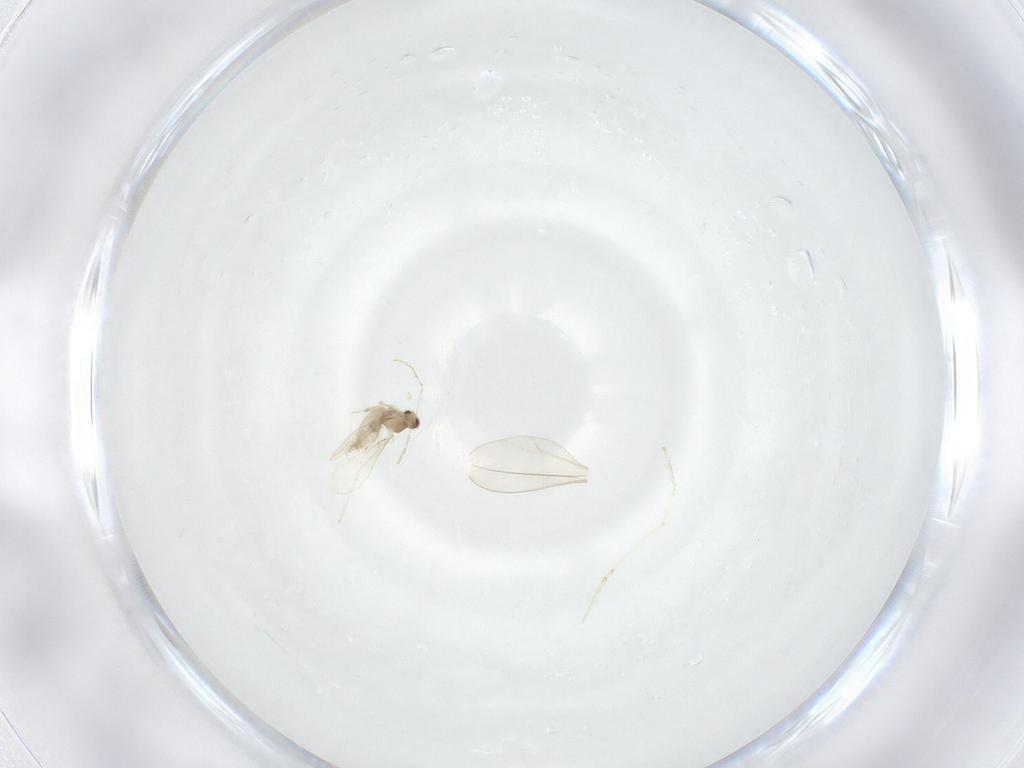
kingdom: Animalia
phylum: Arthropoda
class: Insecta
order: Diptera
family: Cecidomyiidae
